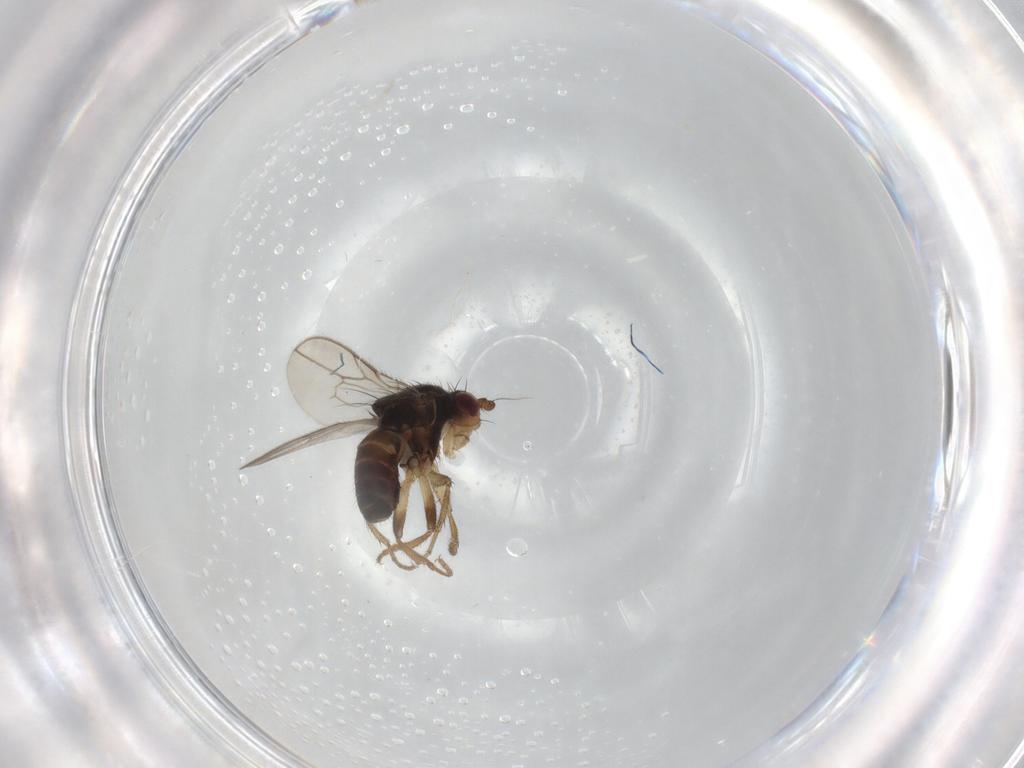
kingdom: Animalia
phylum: Arthropoda
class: Insecta
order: Diptera
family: Sphaeroceridae
